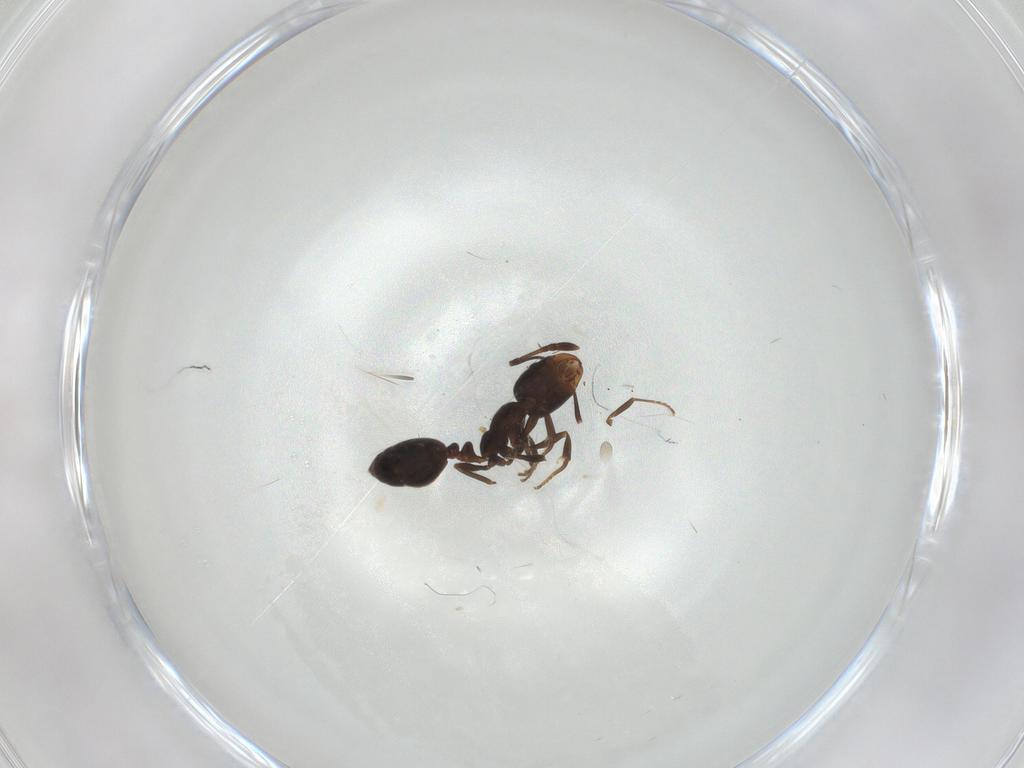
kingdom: Animalia
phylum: Arthropoda
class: Insecta
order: Hymenoptera
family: Formicidae
